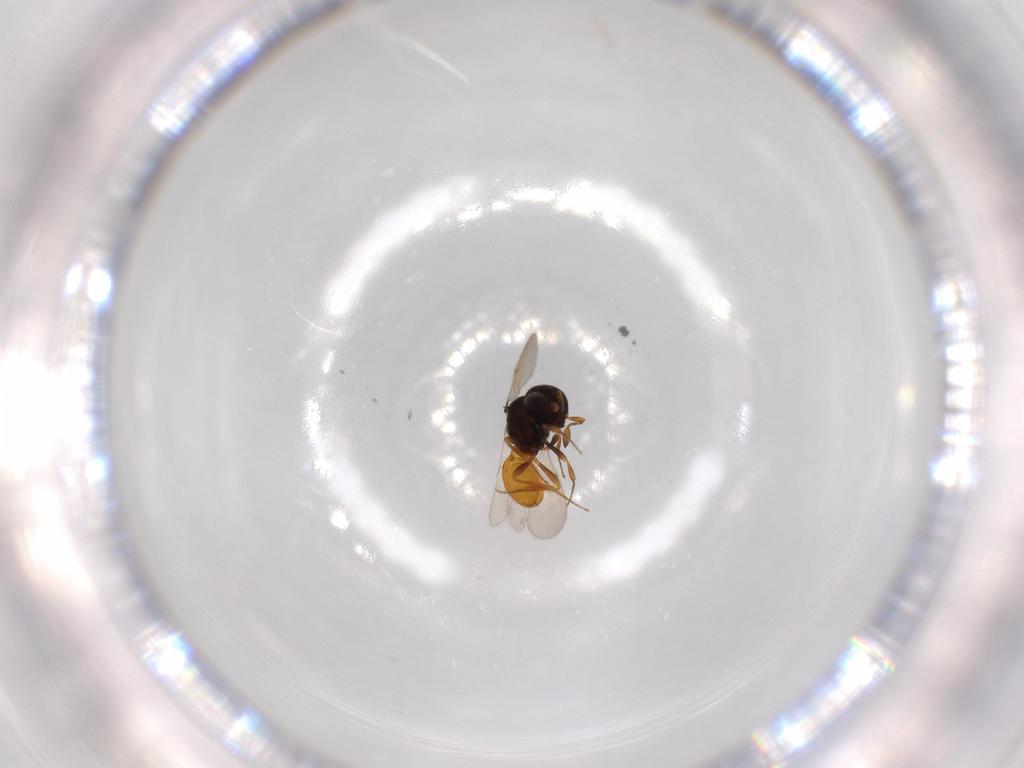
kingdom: Animalia
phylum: Arthropoda
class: Insecta
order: Hymenoptera
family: Scelionidae
